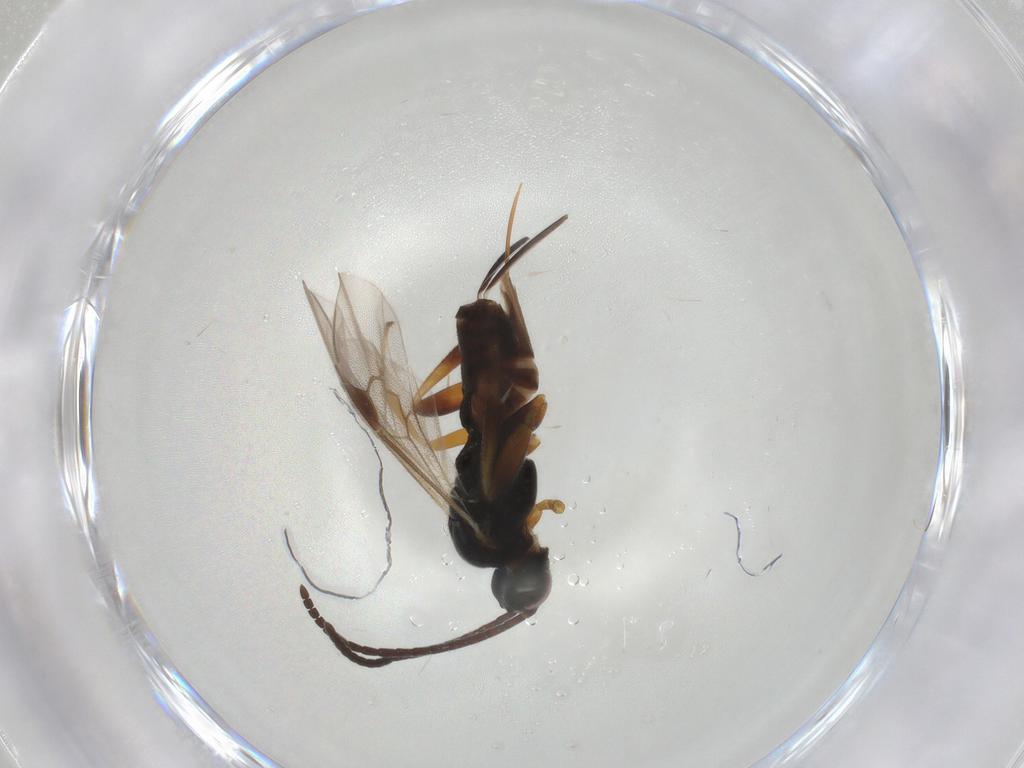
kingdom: Animalia
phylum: Arthropoda
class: Insecta
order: Hymenoptera
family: Braconidae
